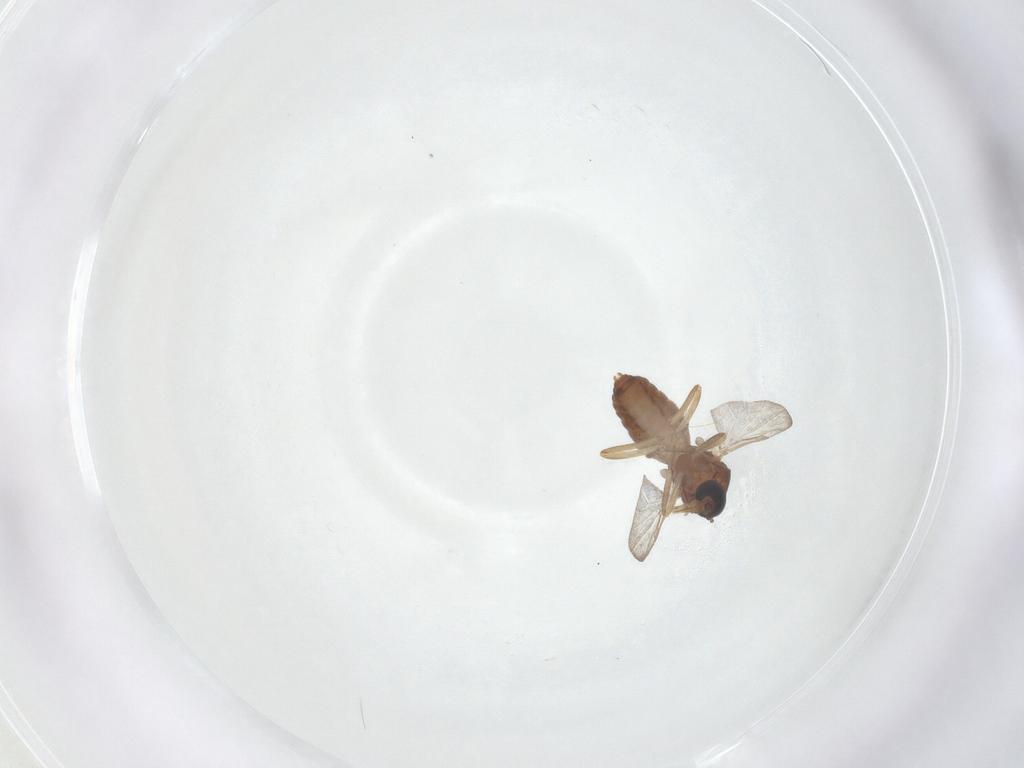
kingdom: Animalia
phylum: Arthropoda
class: Insecta
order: Diptera
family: Ceratopogonidae
